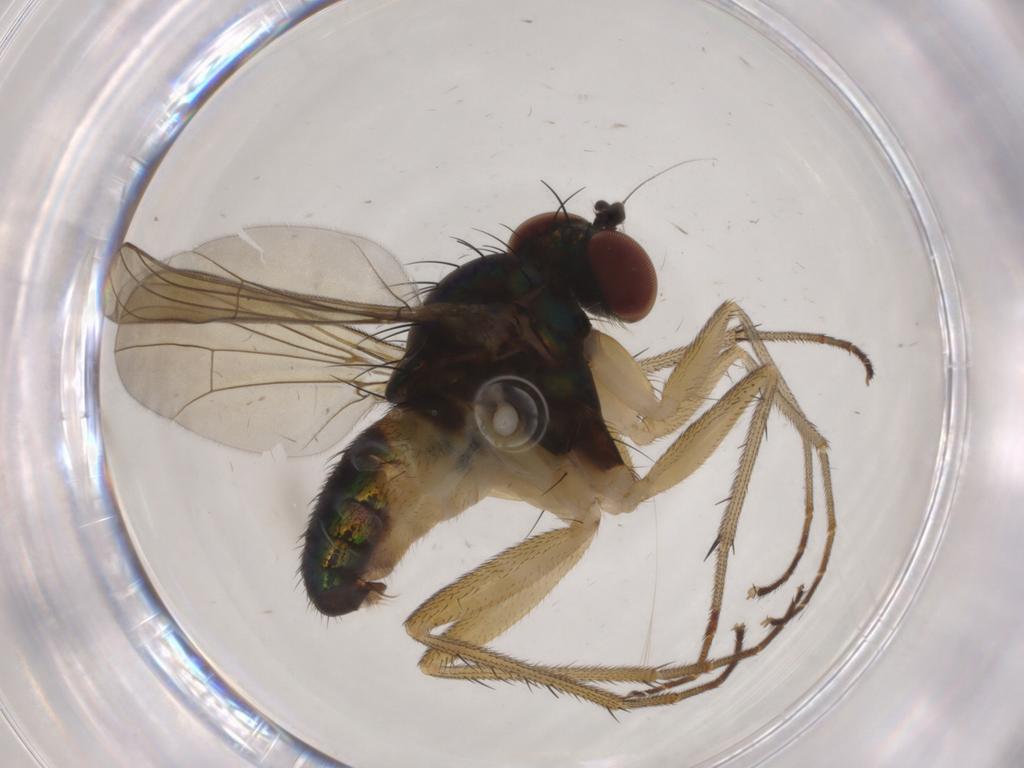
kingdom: Animalia
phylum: Arthropoda
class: Insecta
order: Diptera
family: Dolichopodidae
